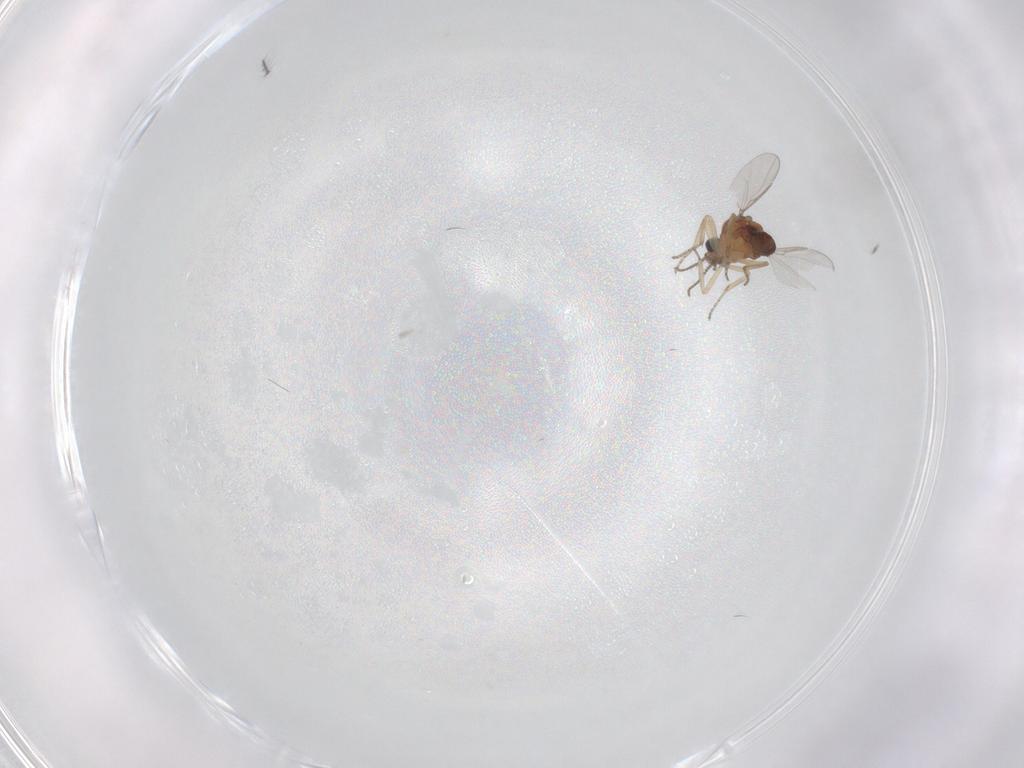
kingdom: Animalia
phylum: Arthropoda
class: Insecta
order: Diptera
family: Ceratopogonidae
